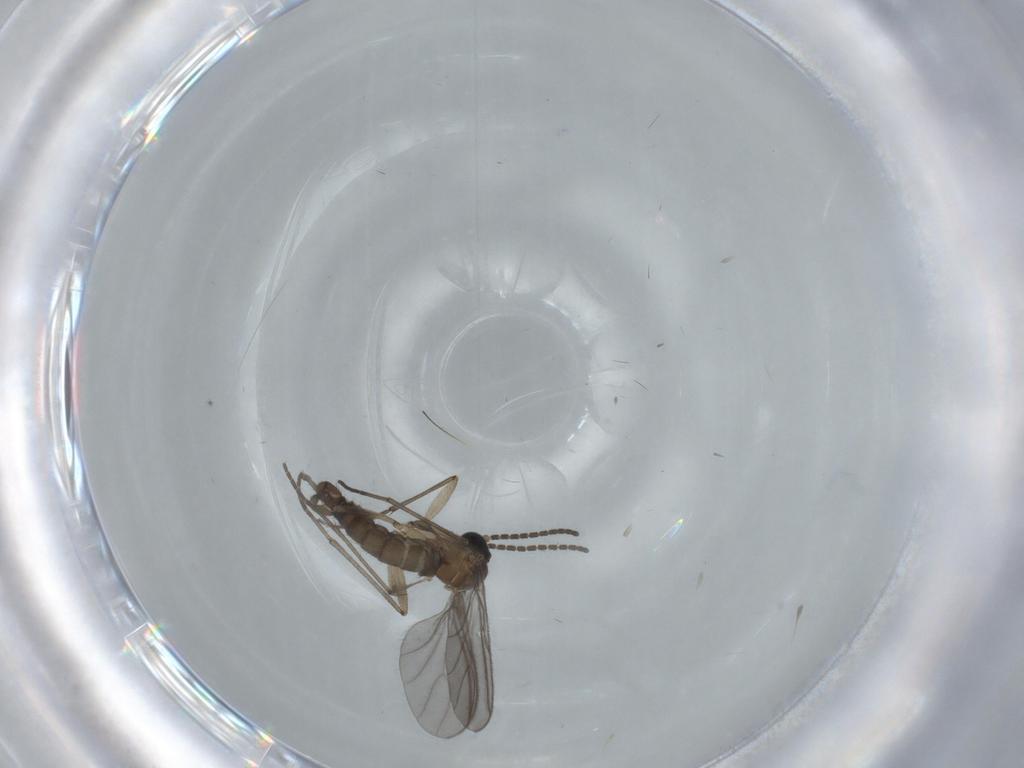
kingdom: Animalia
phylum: Arthropoda
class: Insecta
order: Diptera
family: Sciaridae
